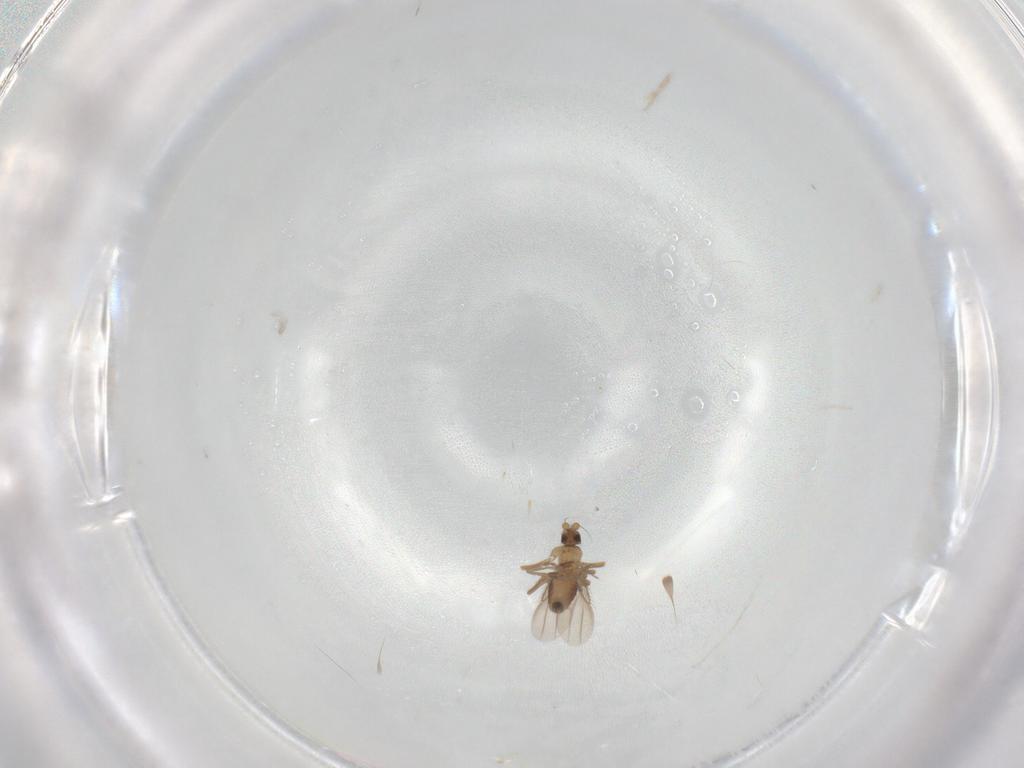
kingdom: Animalia
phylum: Arthropoda
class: Insecta
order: Diptera
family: Phoridae
